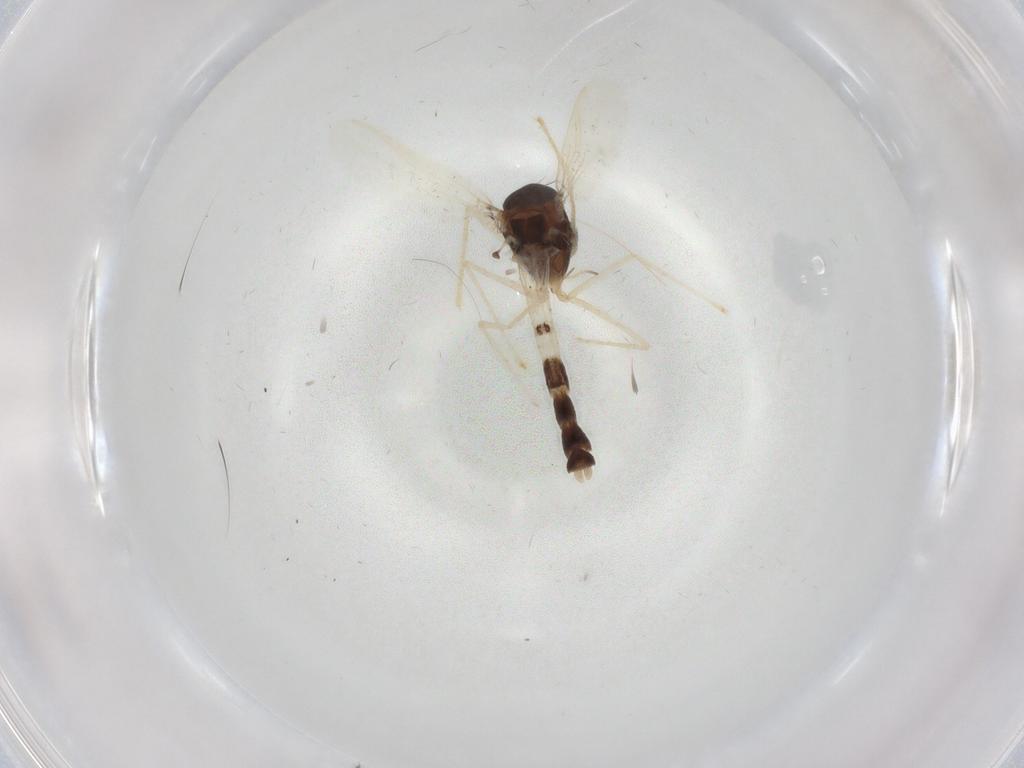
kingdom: Animalia
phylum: Arthropoda
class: Insecta
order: Diptera
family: Chironomidae
